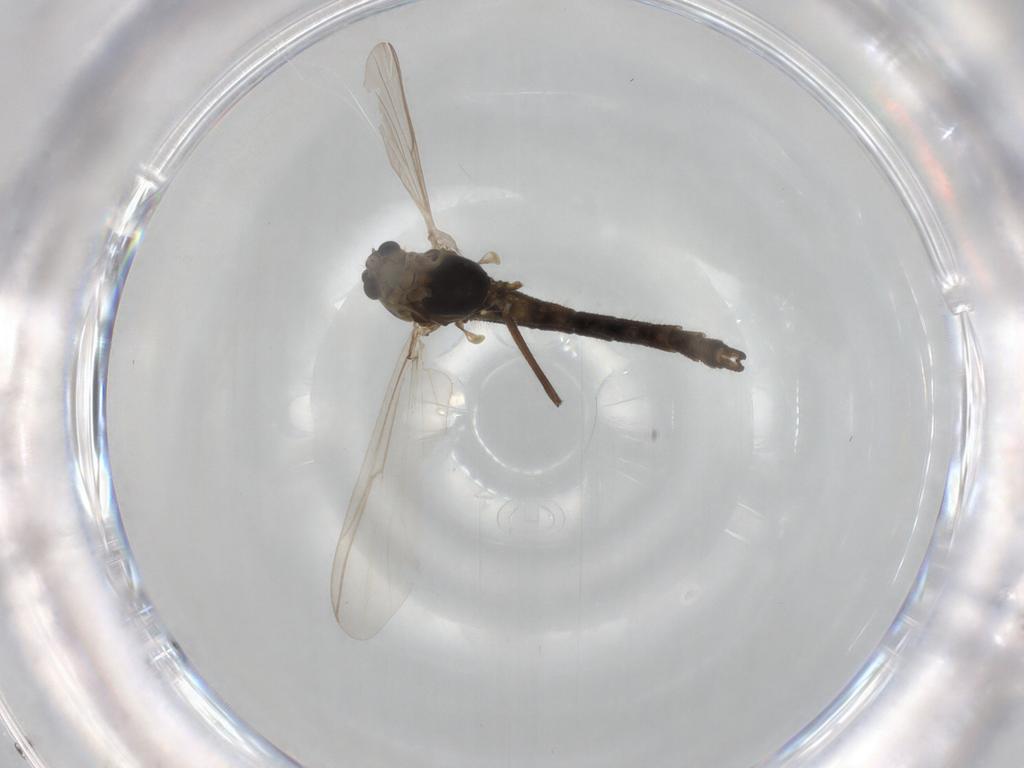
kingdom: Animalia
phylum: Arthropoda
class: Insecta
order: Diptera
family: Chironomidae
